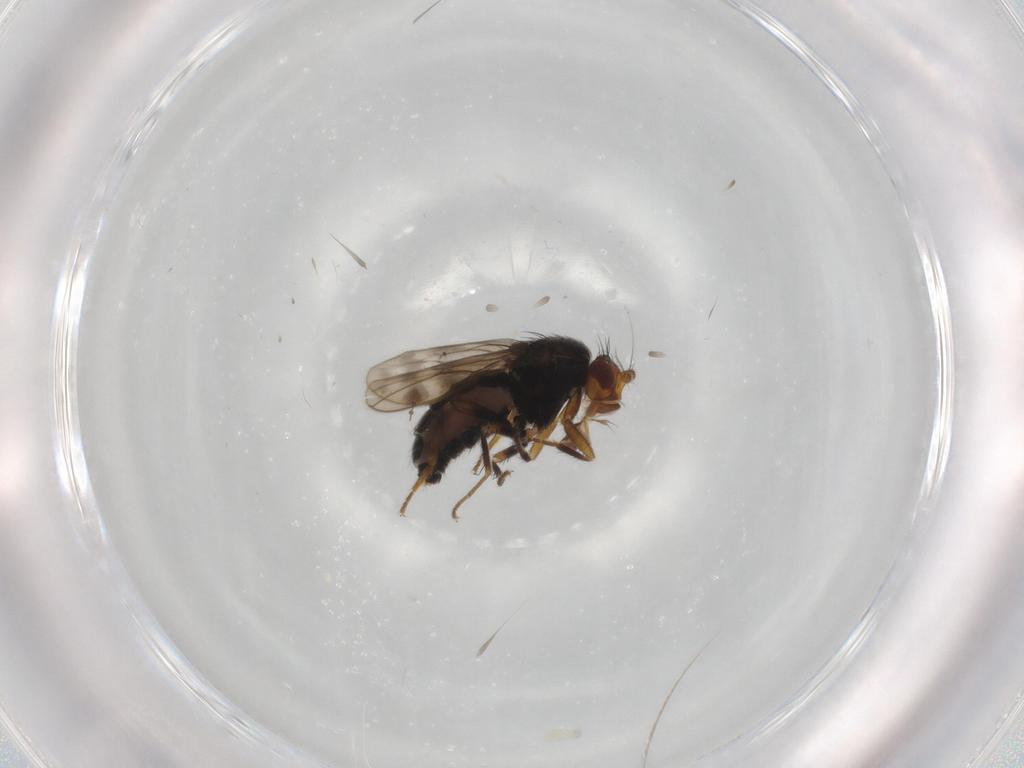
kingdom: Animalia
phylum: Arthropoda
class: Insecta
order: Diptera
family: Sphaeroceridae
